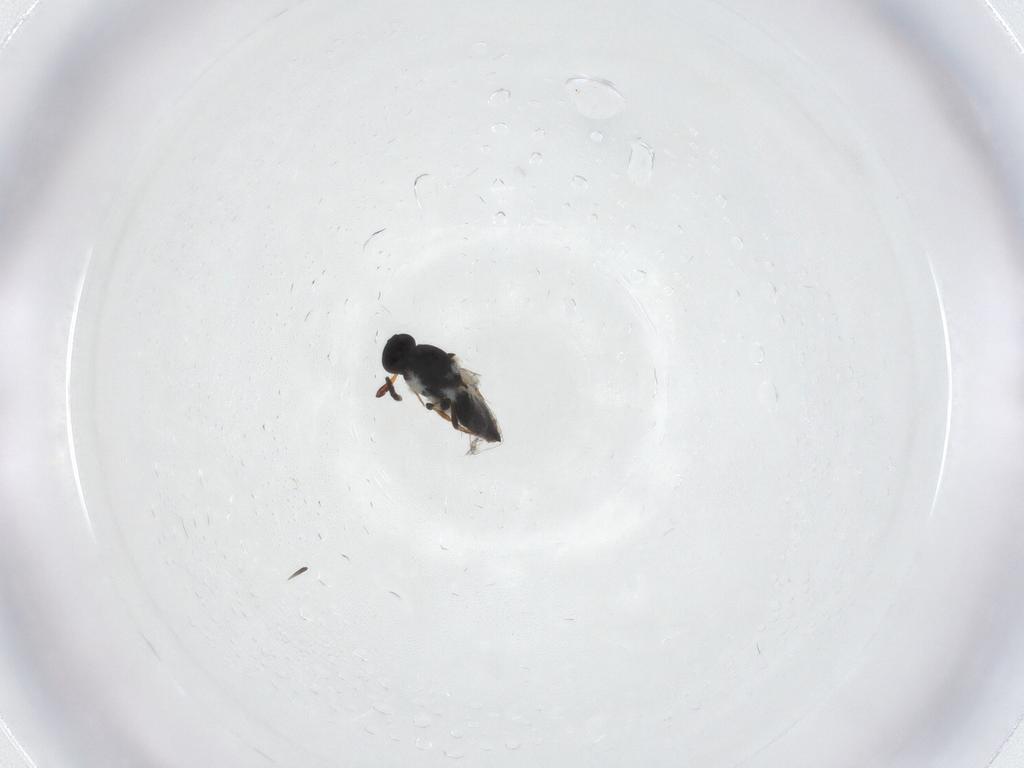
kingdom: Animalia
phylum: Arthropoda
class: Insecta
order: Hymenoptera
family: Platygastridae
